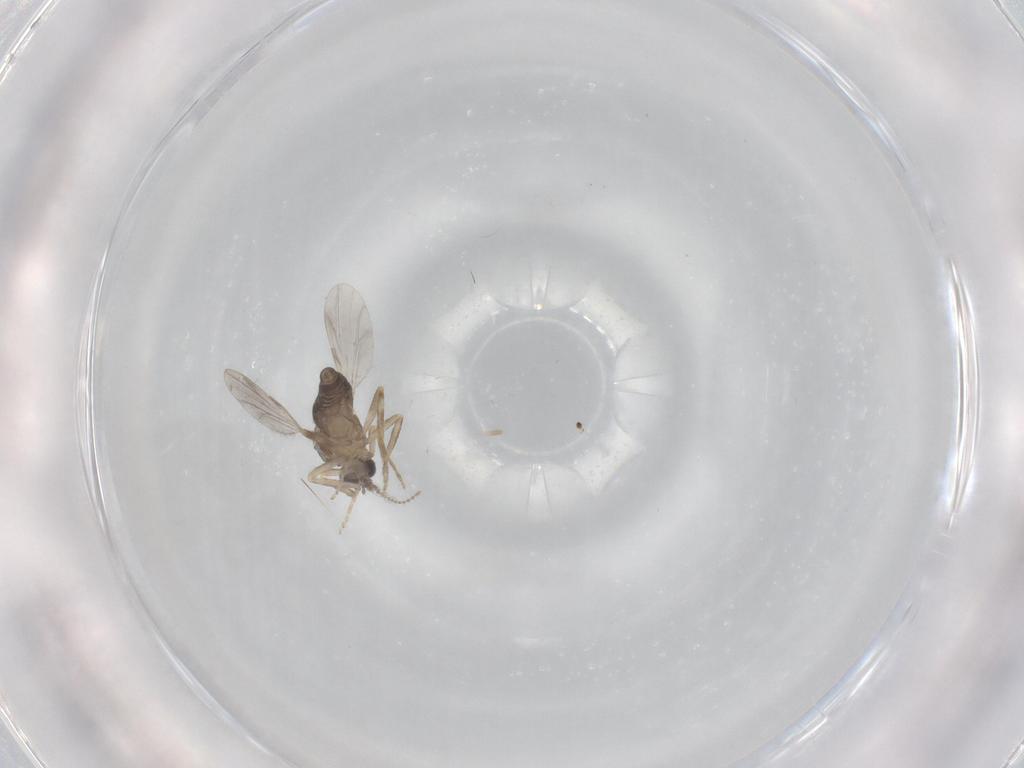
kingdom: Animalia
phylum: Arthropoda
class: Insecta
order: Diptera
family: Ceratopogonidae
